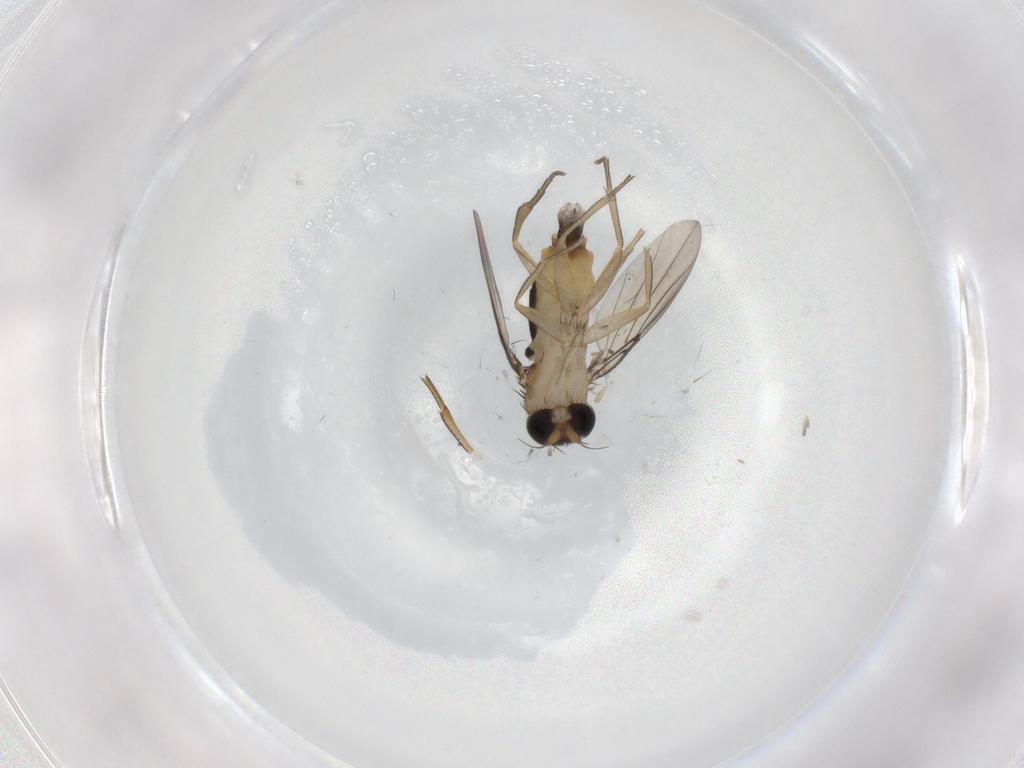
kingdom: Animalia
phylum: Arthropoda
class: Insecta
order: Diptera
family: Phoridae
